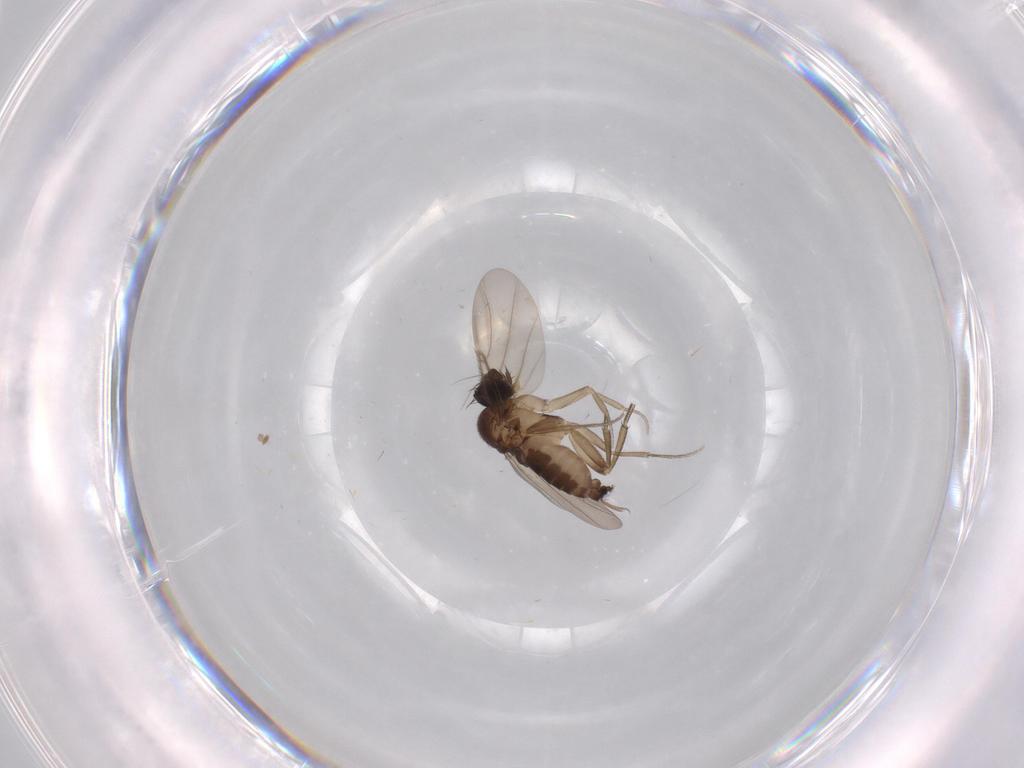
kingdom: Animalia
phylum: Arthropoda
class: Insecta
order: Diptera
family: Phoridae
